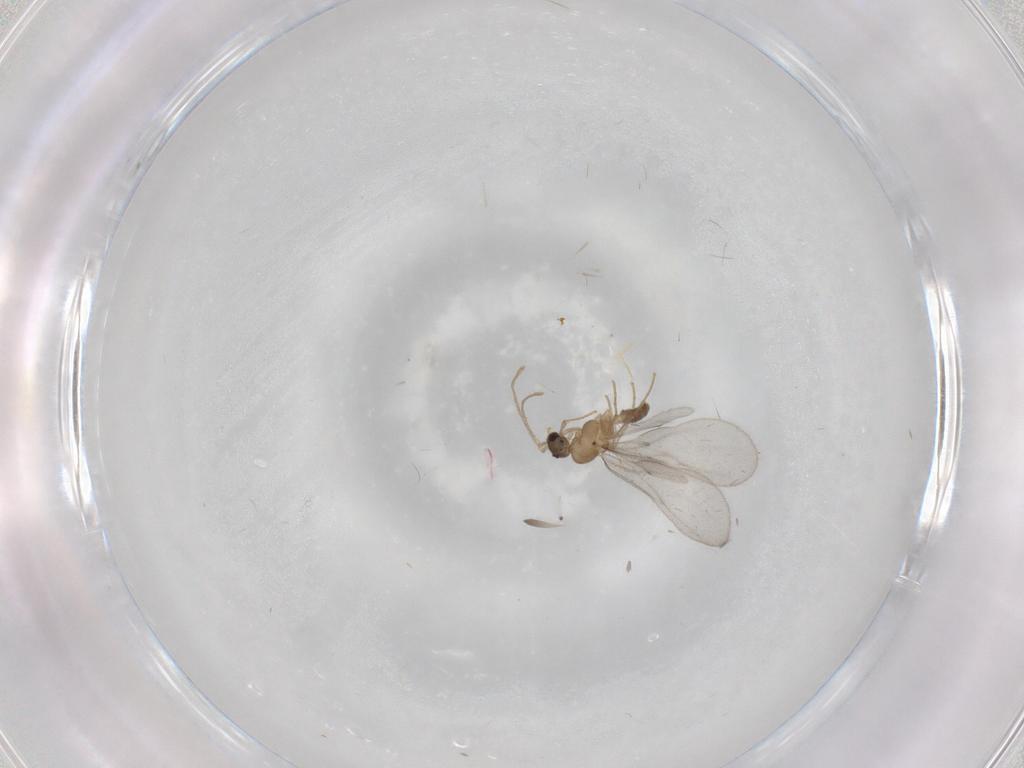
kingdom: Animalia
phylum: Arthropoda
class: Insecta
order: Hymenoptera
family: Formicidae
